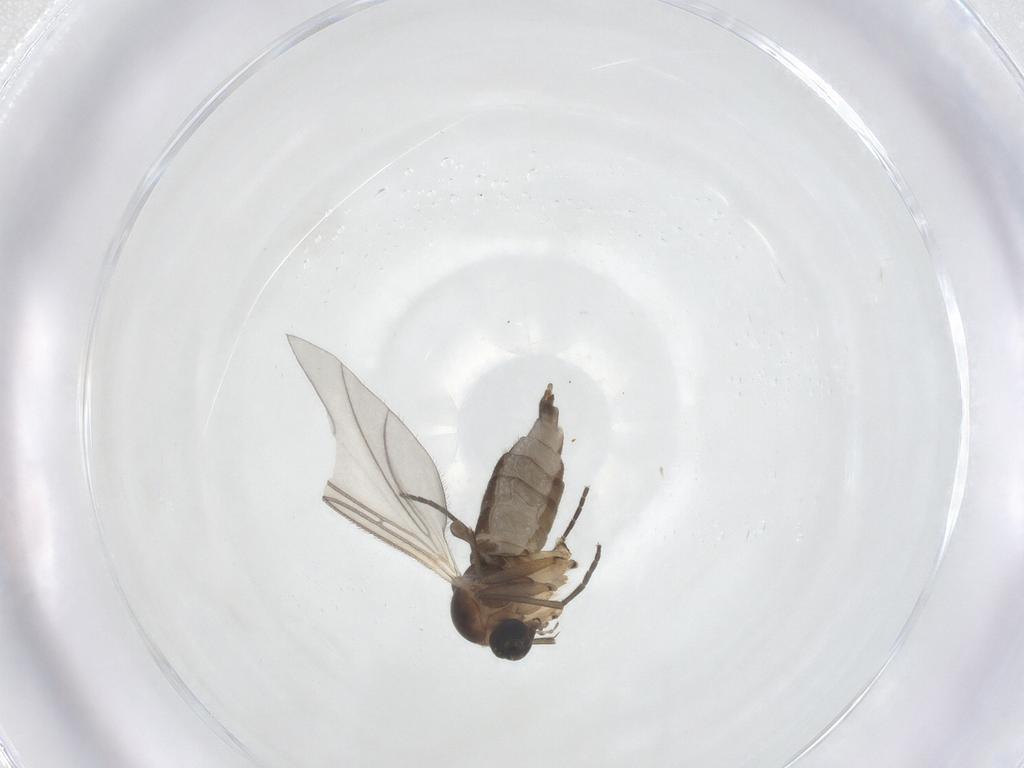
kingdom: Animalia
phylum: Arthropoda
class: Insecta
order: Diptera
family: Sciaridae
